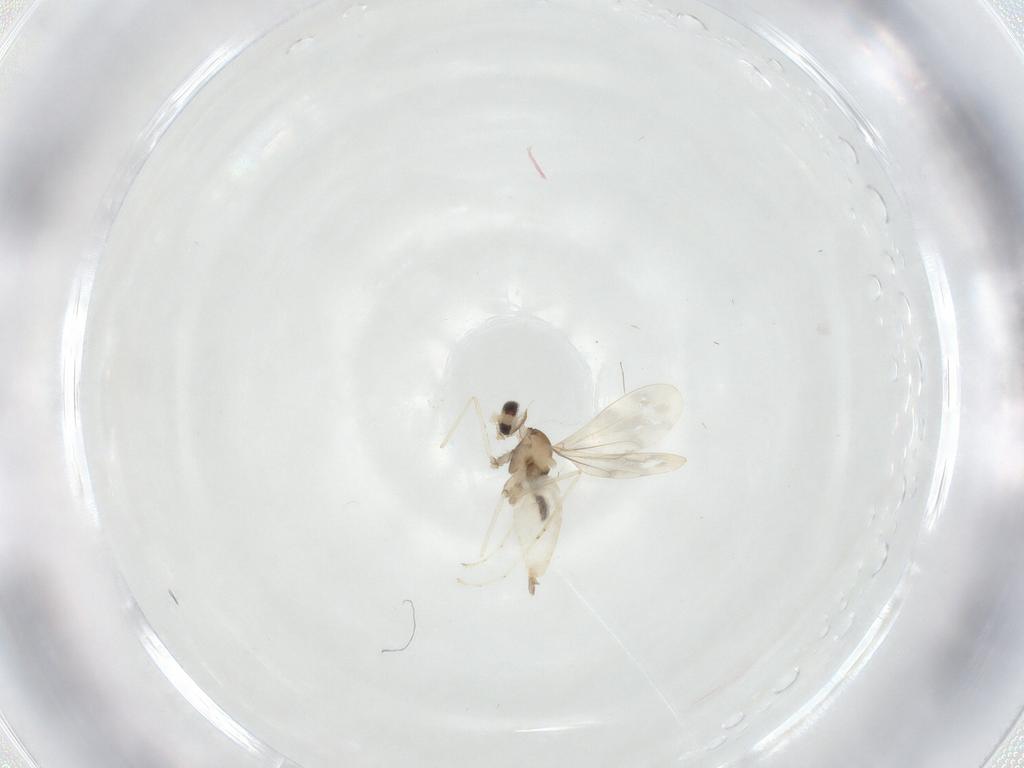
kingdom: Animalia
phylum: Arthropoda
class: Insecta
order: Diptera
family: Cecidomyiidae
